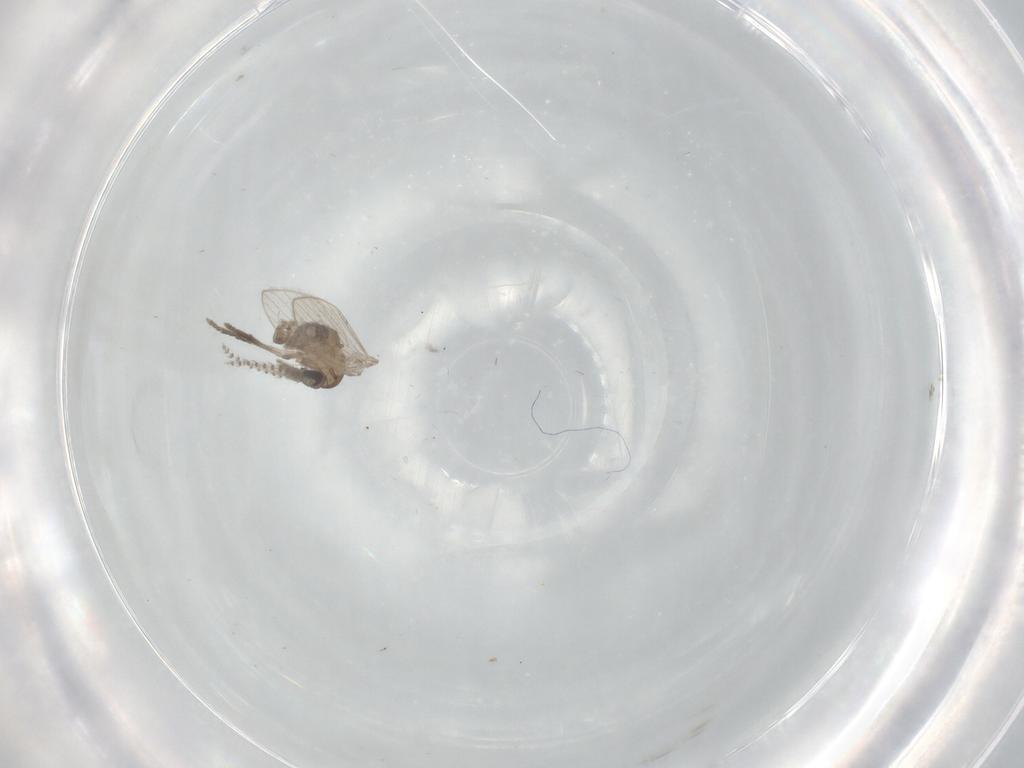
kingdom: Animalia
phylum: Arthropoda
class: Insecta
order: Diptera
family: Psychodidae
